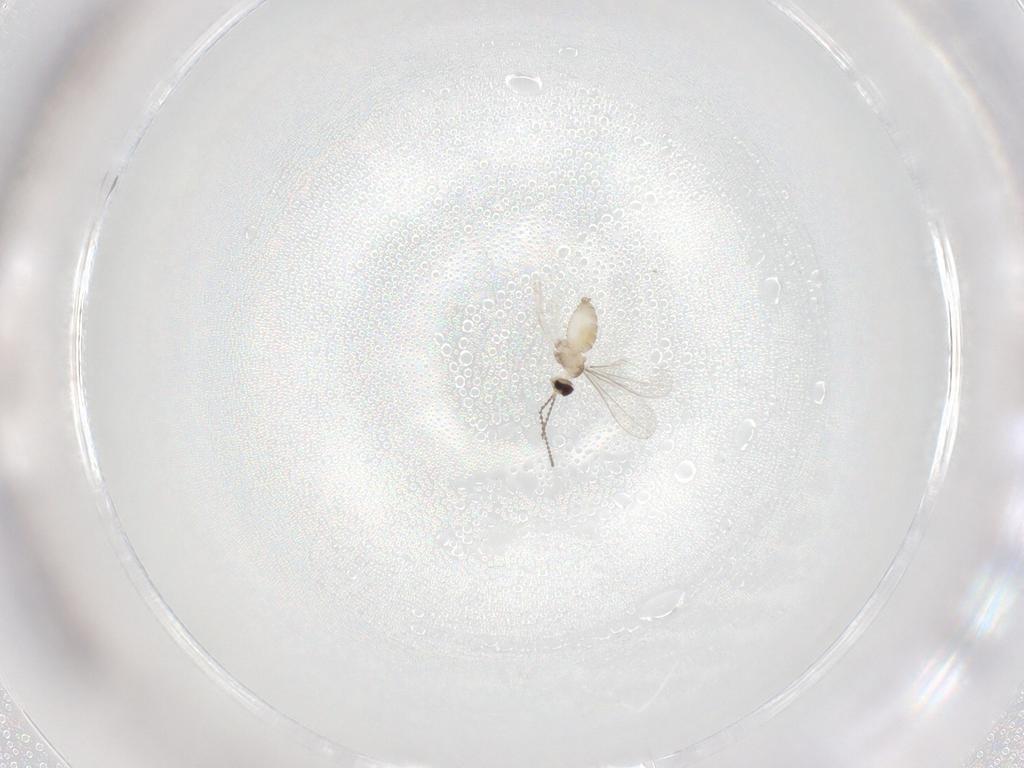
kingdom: Animalia
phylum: Arthropoda
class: Insecta
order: Diptera
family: Phoridae
